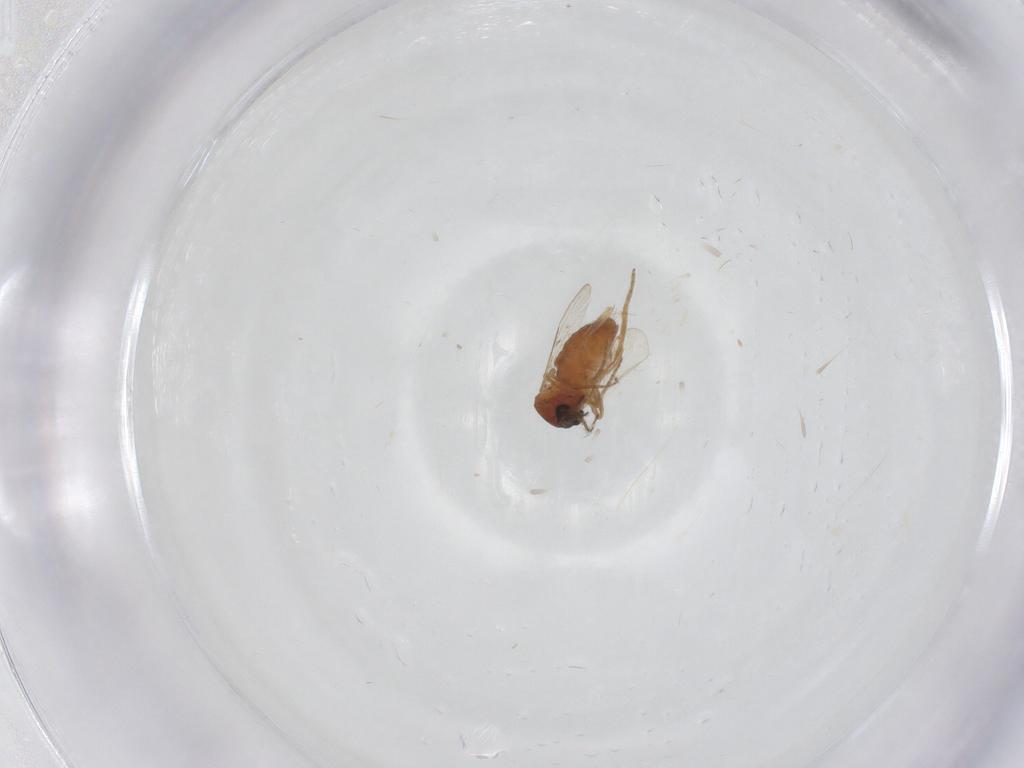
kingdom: Animalia
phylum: Arthropoda
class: Insecta
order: Diptera
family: Ceratopogonidae
